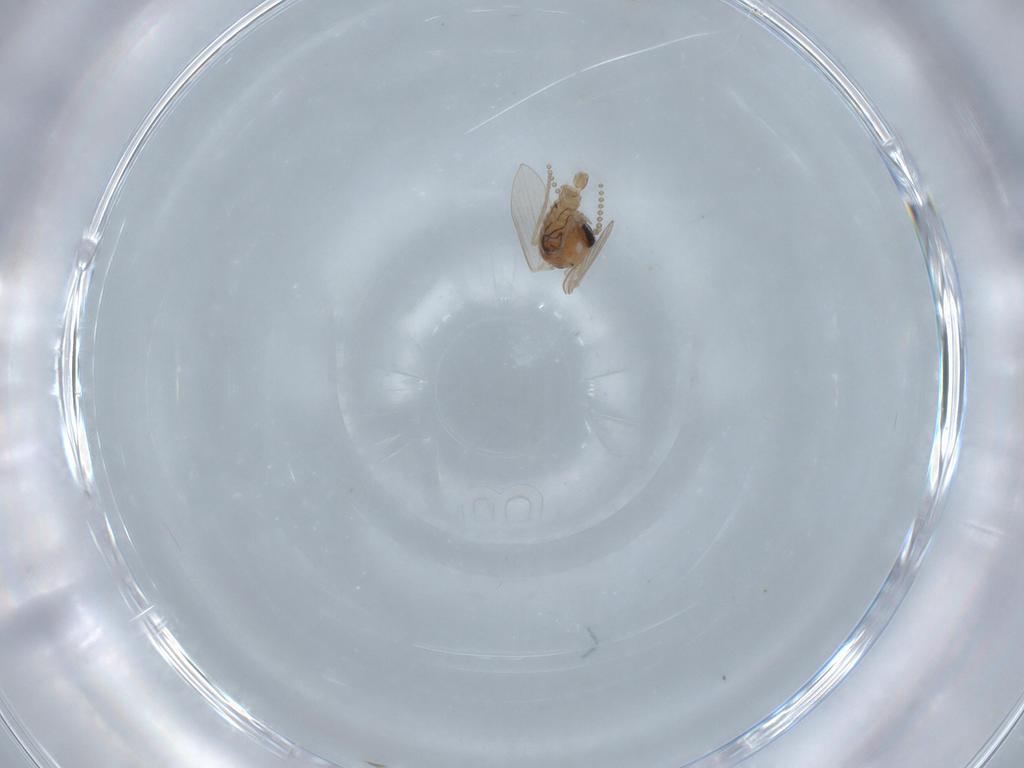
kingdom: Animalia
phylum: Arthropoda
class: Insecta
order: Diptera
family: Psychodidae
